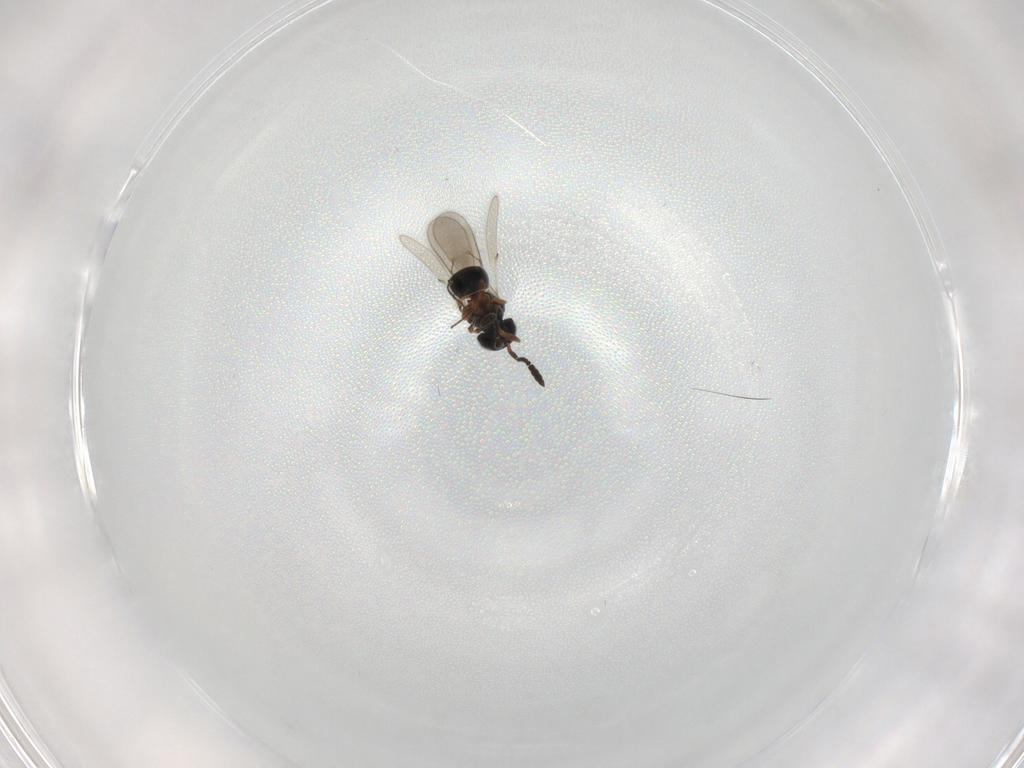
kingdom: Animalia
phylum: Arthropoda
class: Insecta
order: Hymenoptera
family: Scelionidae
